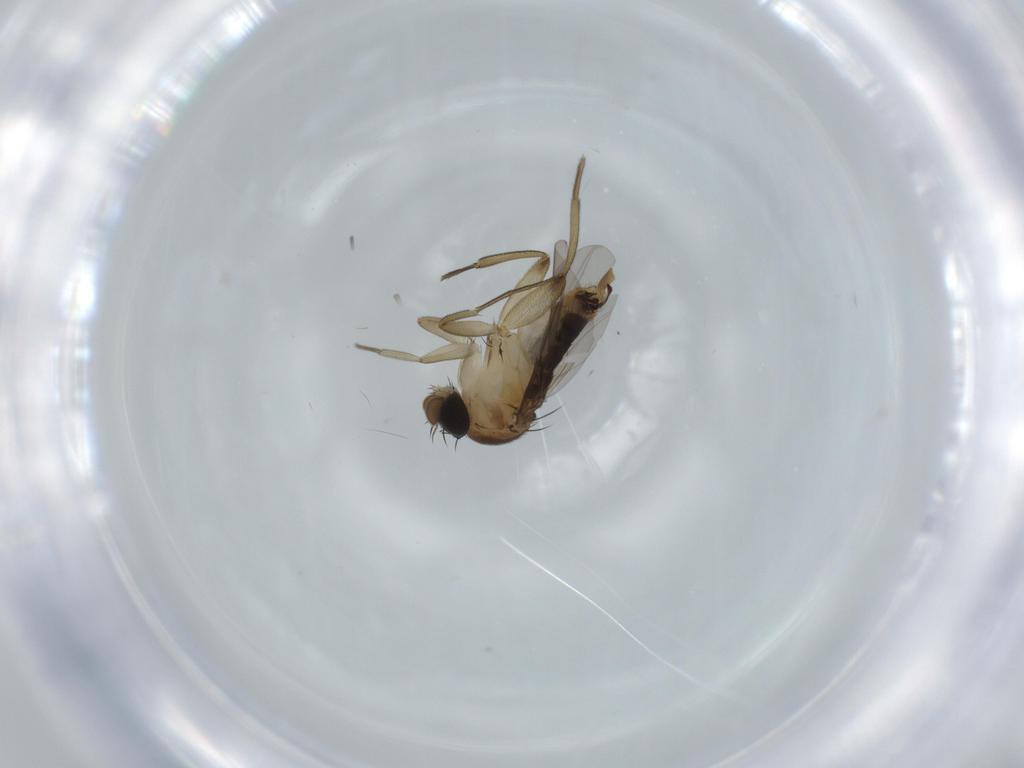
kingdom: Animalia
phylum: Arthropoda
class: Insecta
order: Diptera
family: Phoridae
